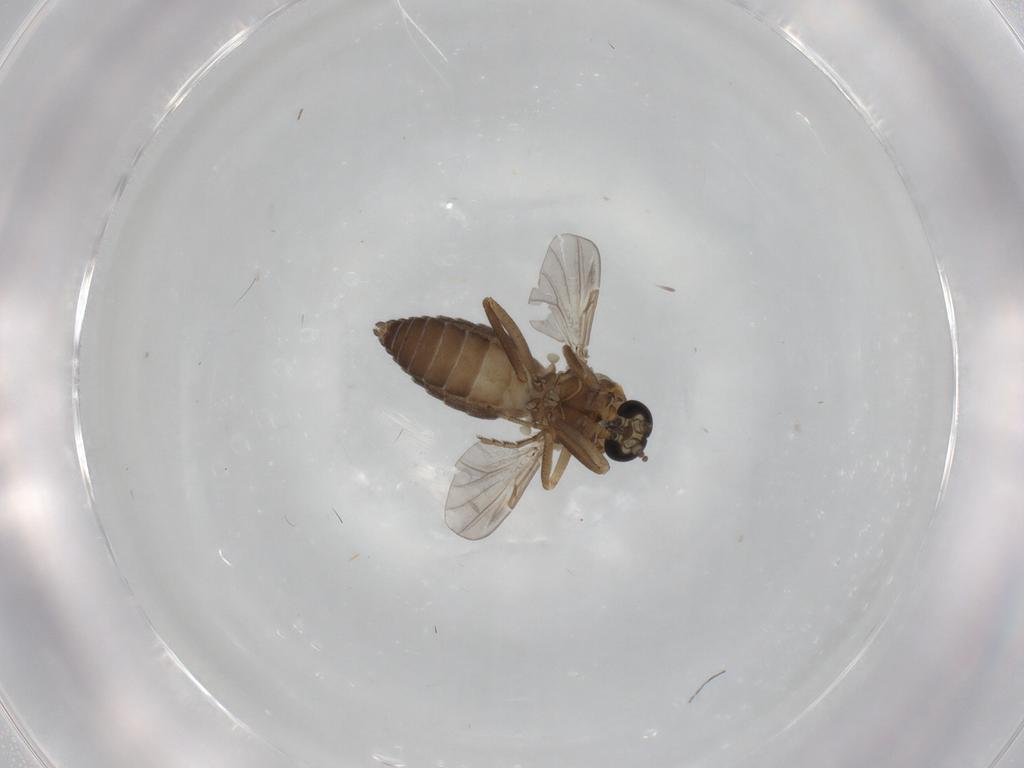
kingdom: Animalia
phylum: Arthropoda
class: Insecta
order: Diptera
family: Ceratopogonidae
